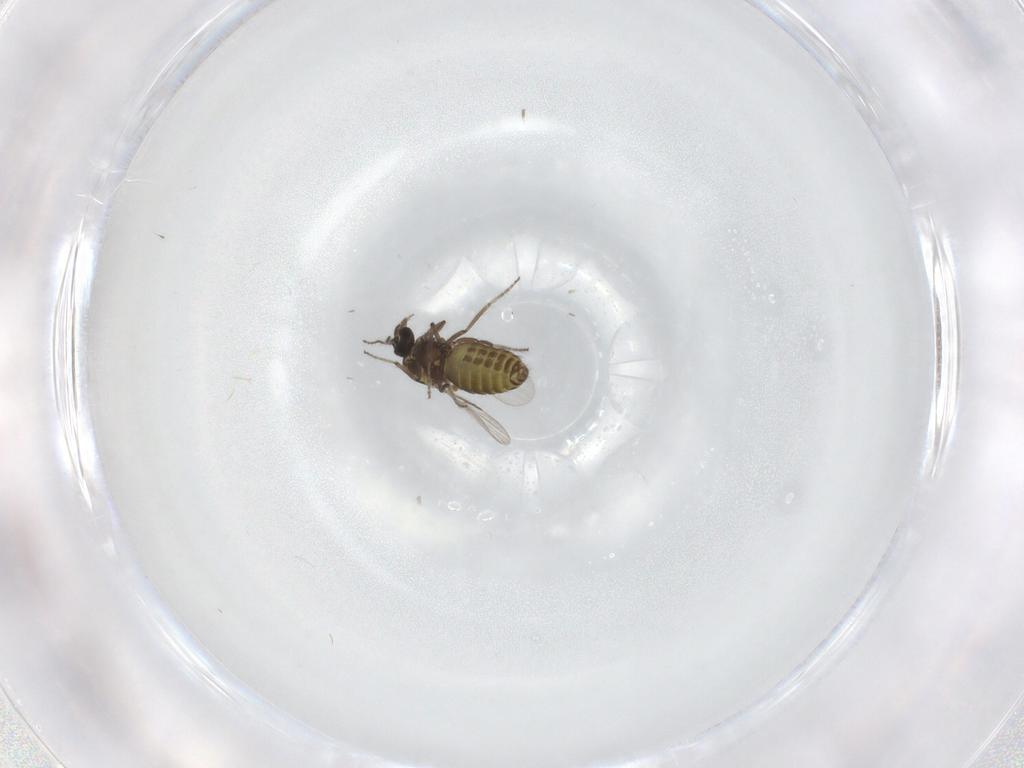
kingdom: Animalia
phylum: Arthropoda
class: Insecta
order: Diptera
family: Ceratopogonidae
